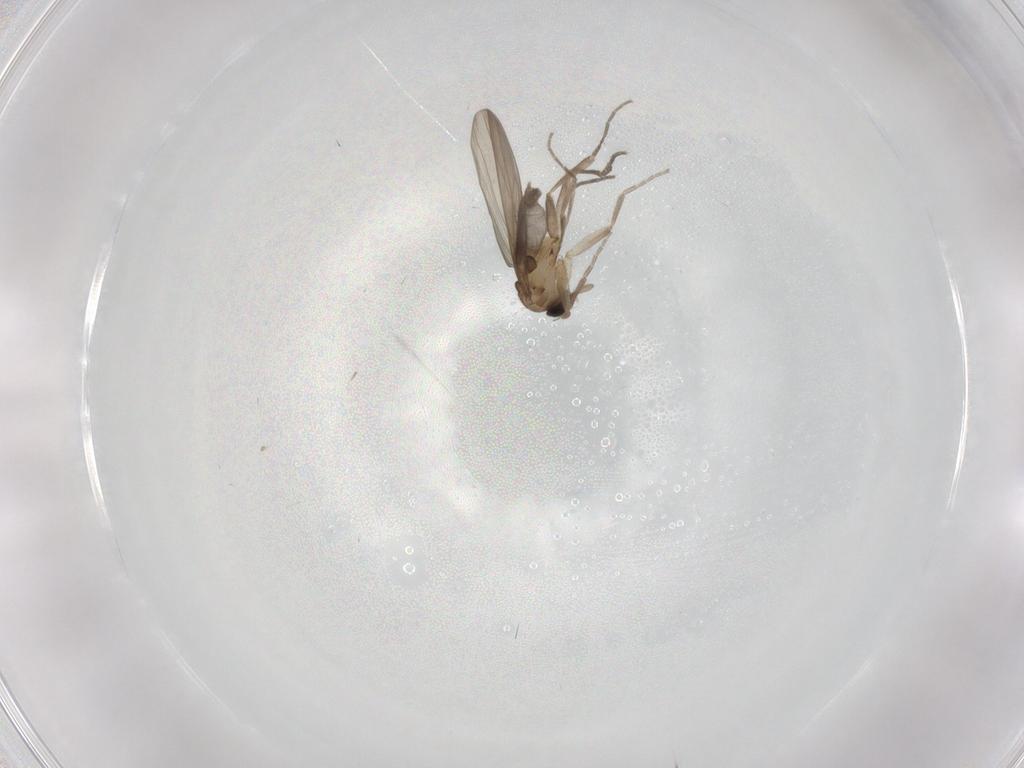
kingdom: Animalia
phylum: Arthropoda
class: Insecta
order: Diptera
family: Phoridae
